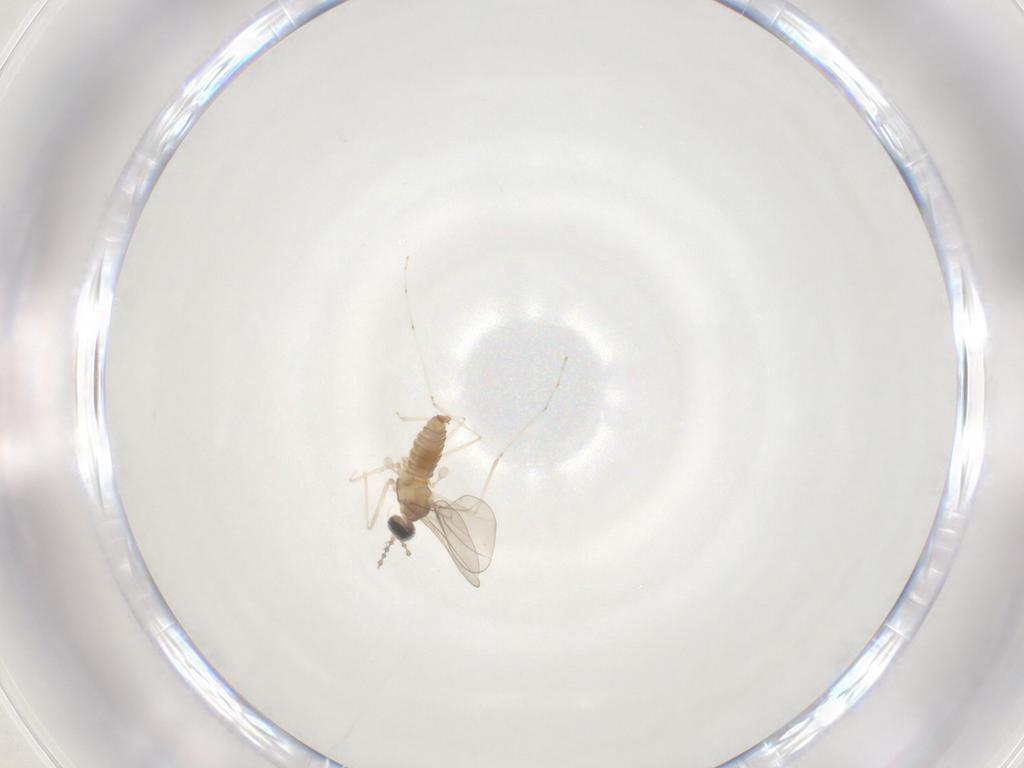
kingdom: Animalia
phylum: Arthropoda
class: Insecta
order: Diptera
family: Cecidomyiidae
